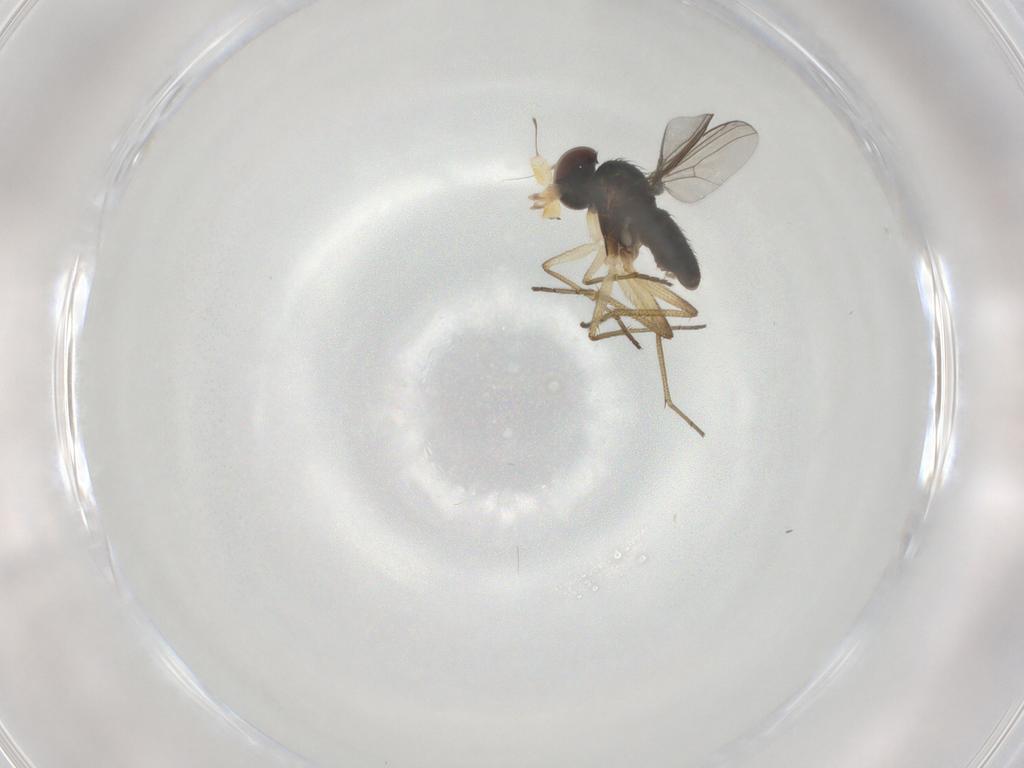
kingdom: Animalia
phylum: Arthropoda
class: Insecta
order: Diptera
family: Dolichopodidae
